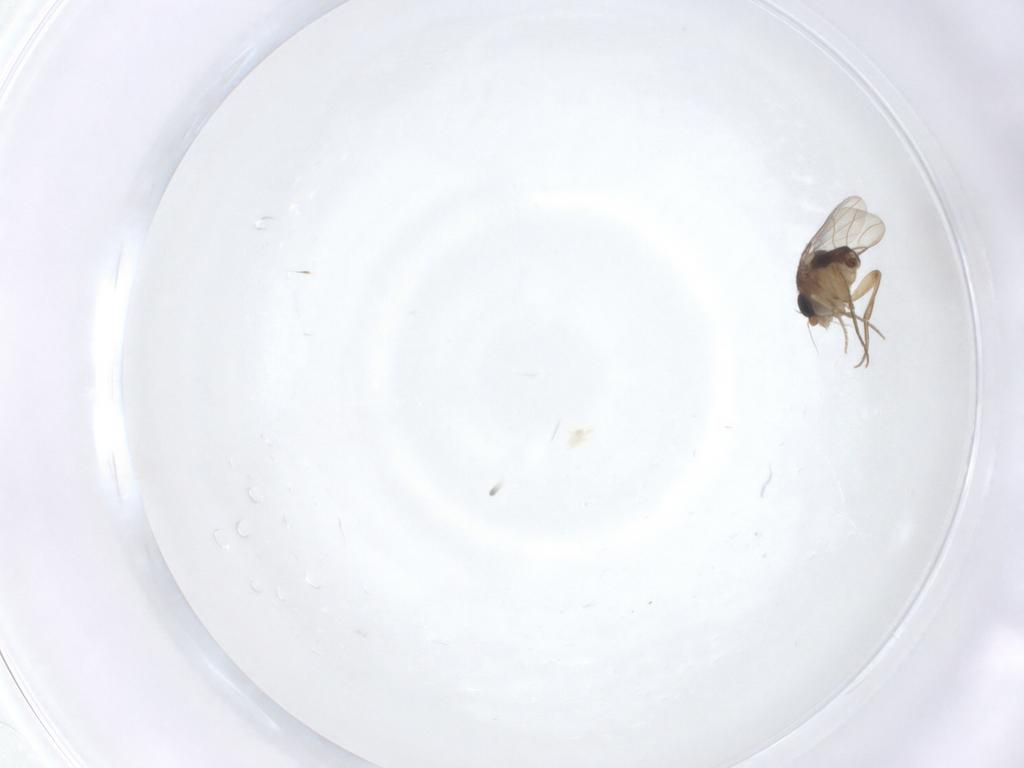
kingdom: Animalia
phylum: Arthropoda
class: Insecta
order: Diptera
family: Phoridae
